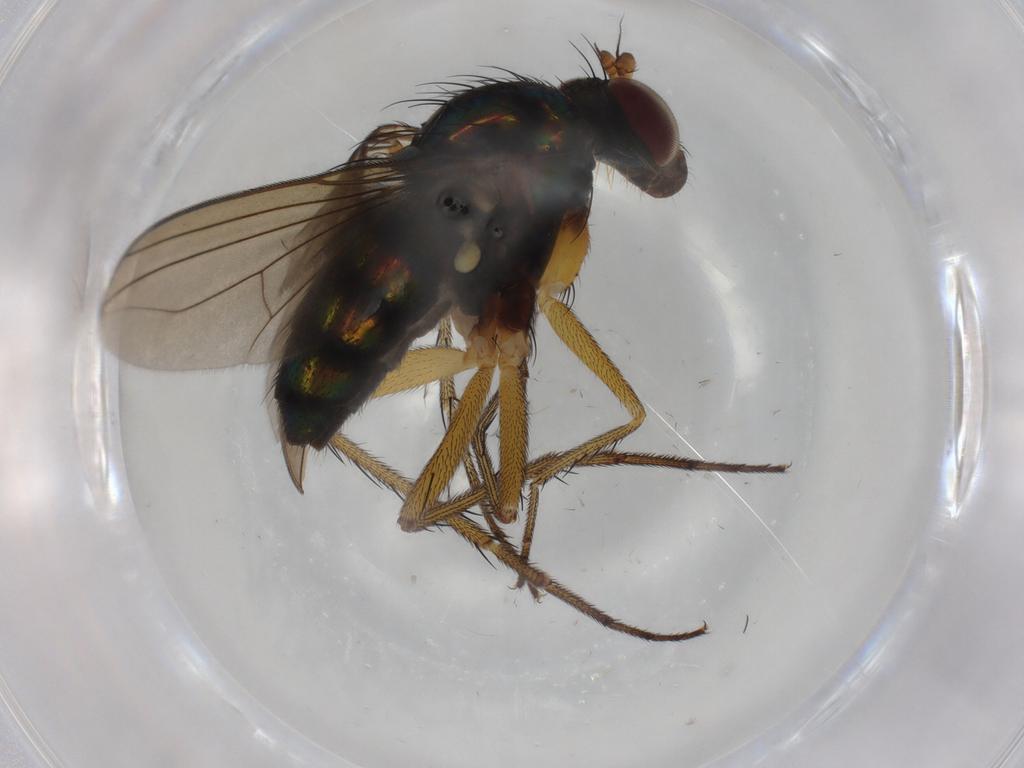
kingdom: Animalia
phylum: Arthropoda
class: Insecta
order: Diptera
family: Dolichopodidae
